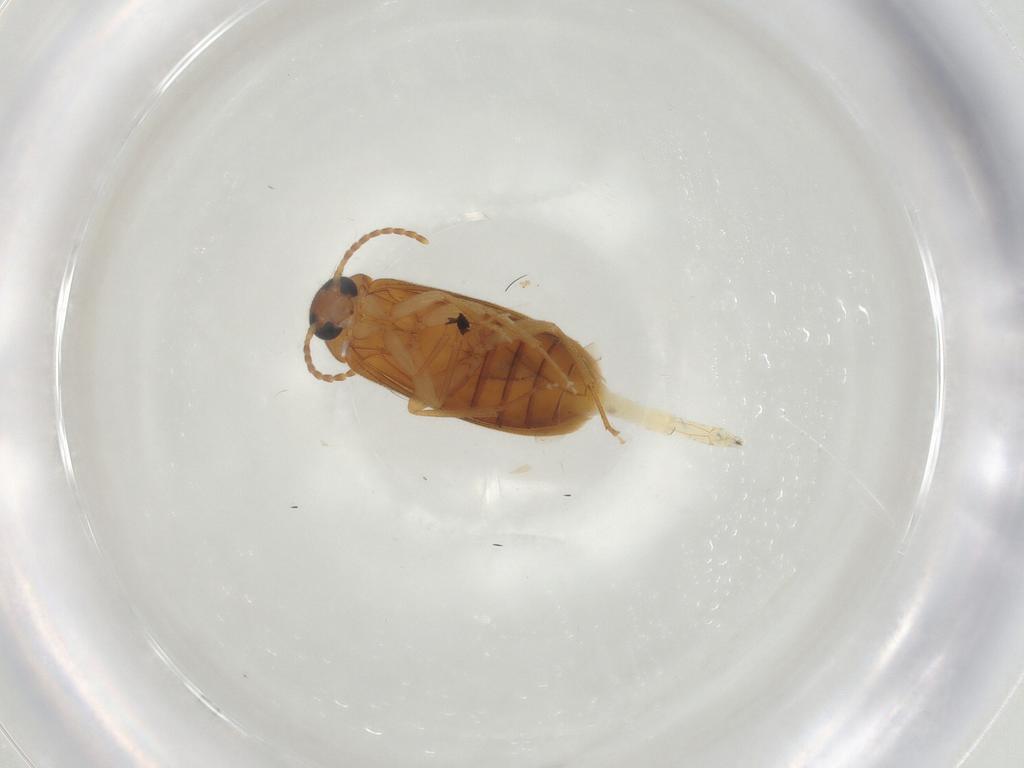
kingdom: Animalia
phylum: Arthropoda
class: Insecta
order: Coleoptera
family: Scraptiidae
